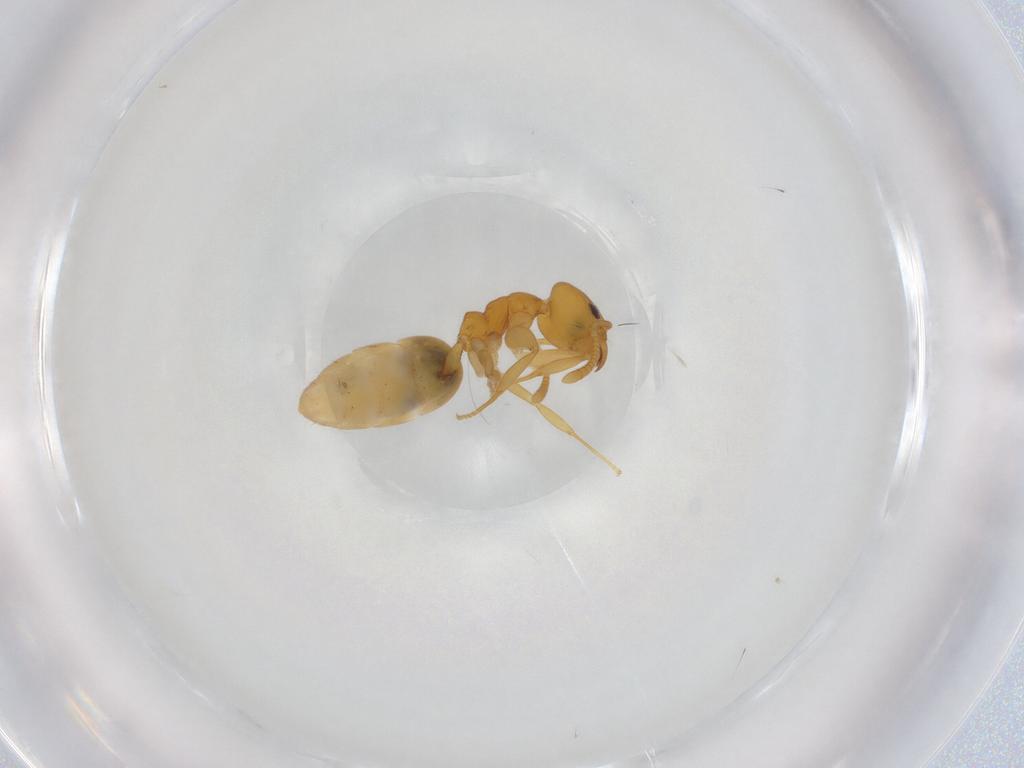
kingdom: Animalia
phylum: Arthropoda
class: Insecta
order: Hymenoptera
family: Formicidae
